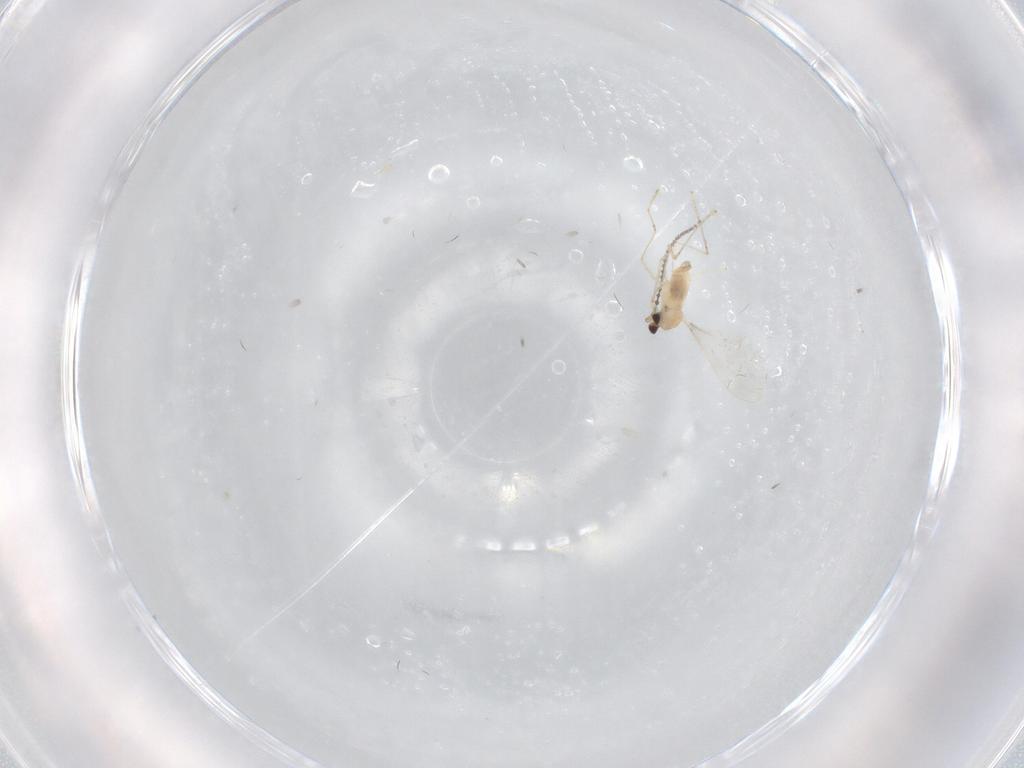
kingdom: Animalia
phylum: Arthropoda
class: Insecta
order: Diptera
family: Cecidomyiidae
